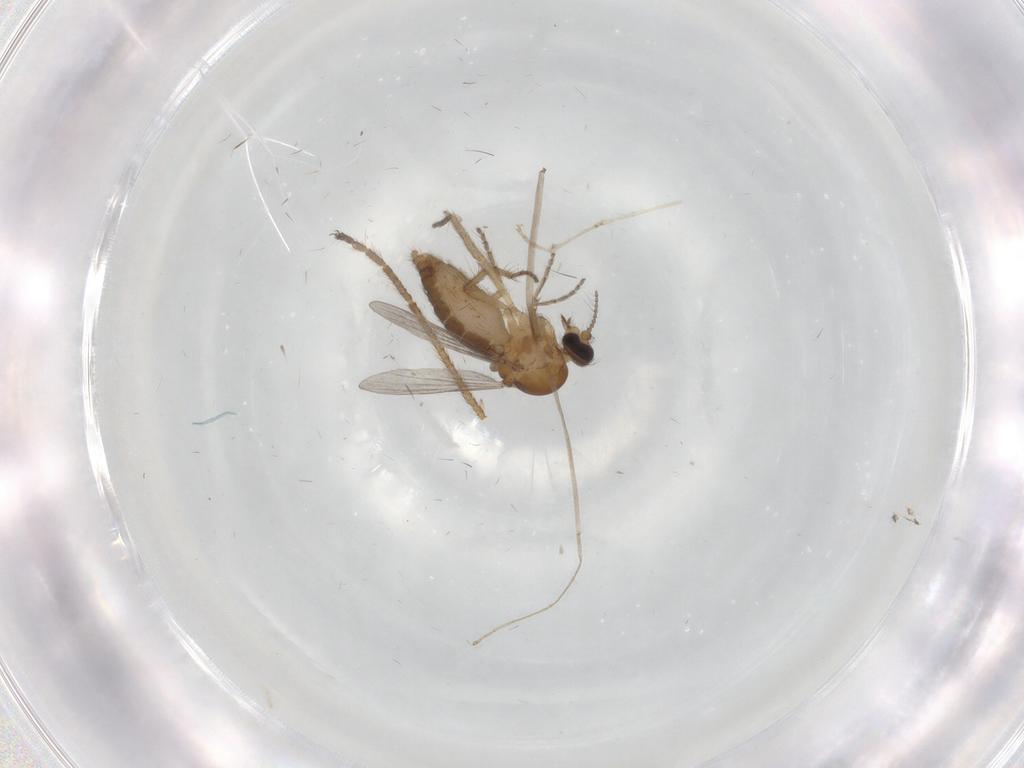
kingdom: Animalia
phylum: Arthropoda
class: Insecta
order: Diptera
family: Ceratopogonidae
